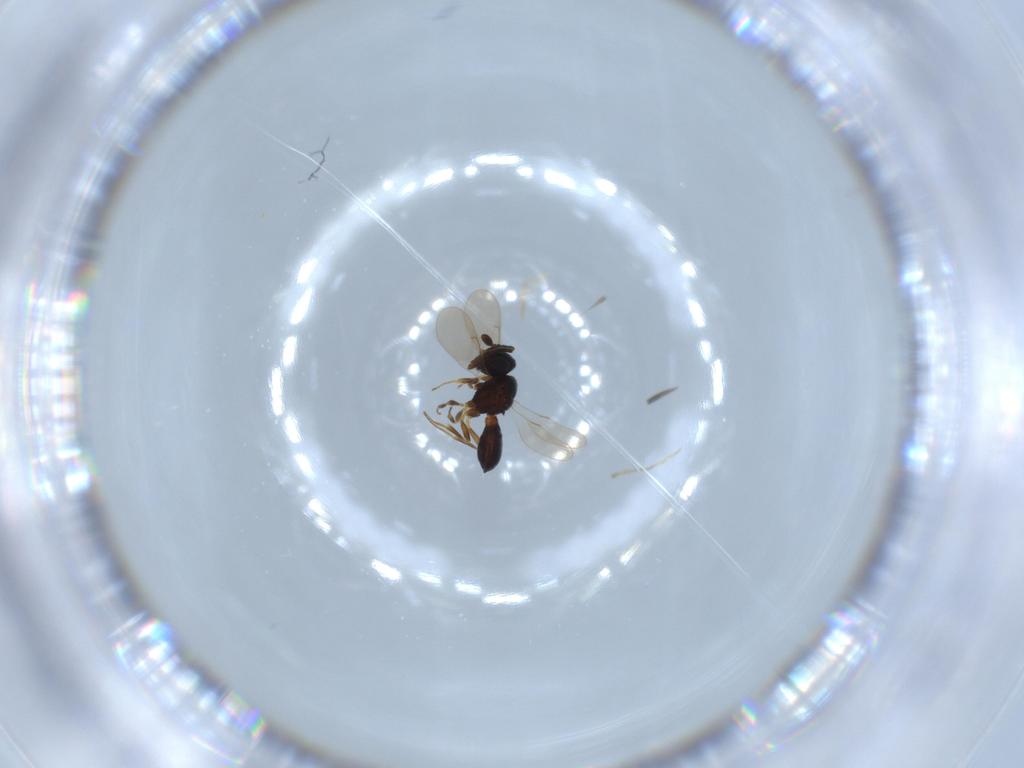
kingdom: Animalia
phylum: Arthropoda
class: Insecta
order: Hymenoptera
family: Scelionidae
